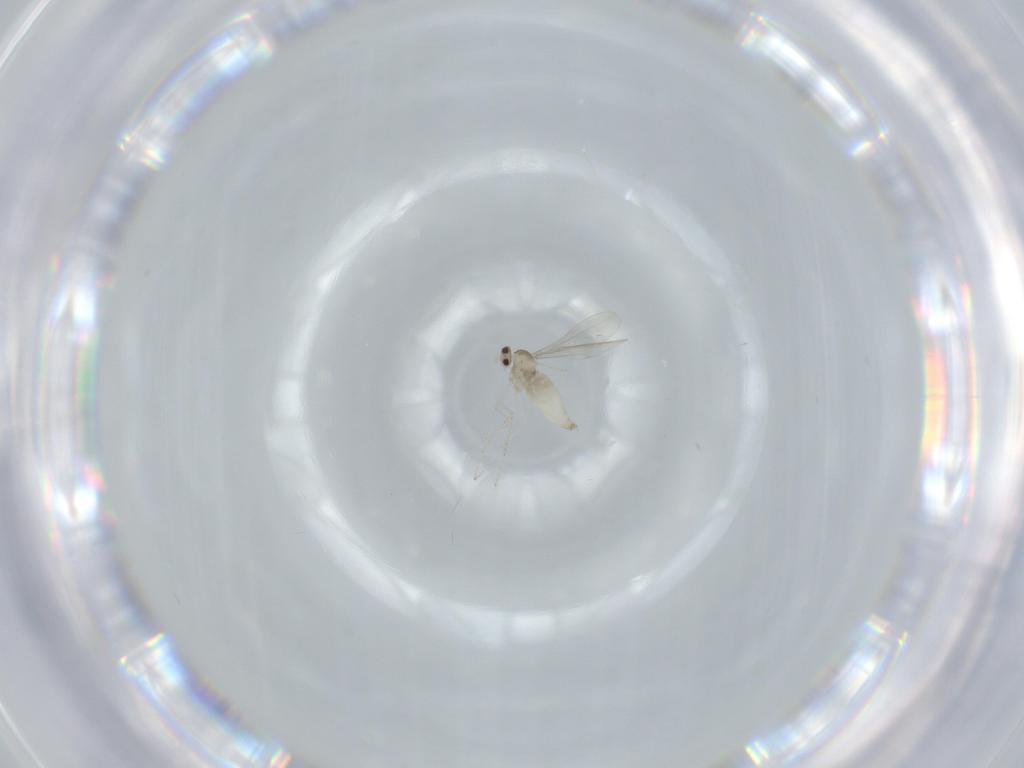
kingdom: Animalia
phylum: Arthropoda
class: Insecta
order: Diptera
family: Cecidomyiidae
